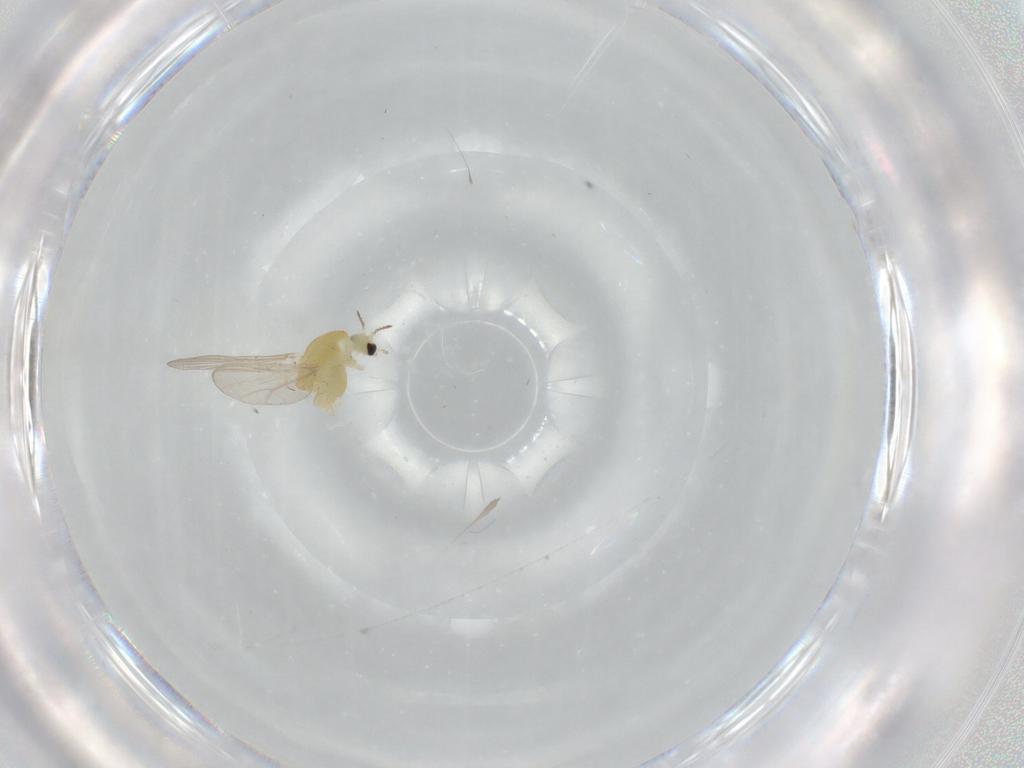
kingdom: Animalia
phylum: Arthropoda
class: Insecta
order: Diptera
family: Chironomidae
